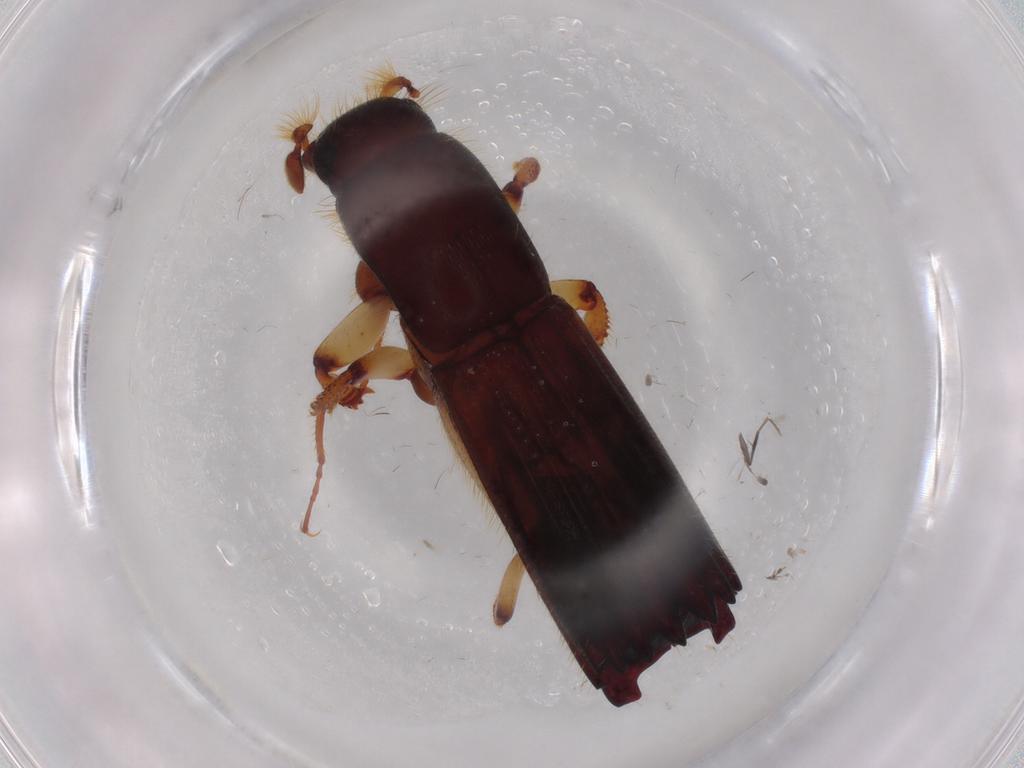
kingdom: Animalia
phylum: Arthropoda
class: Insecta
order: Coleoptera
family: Curculionidae
